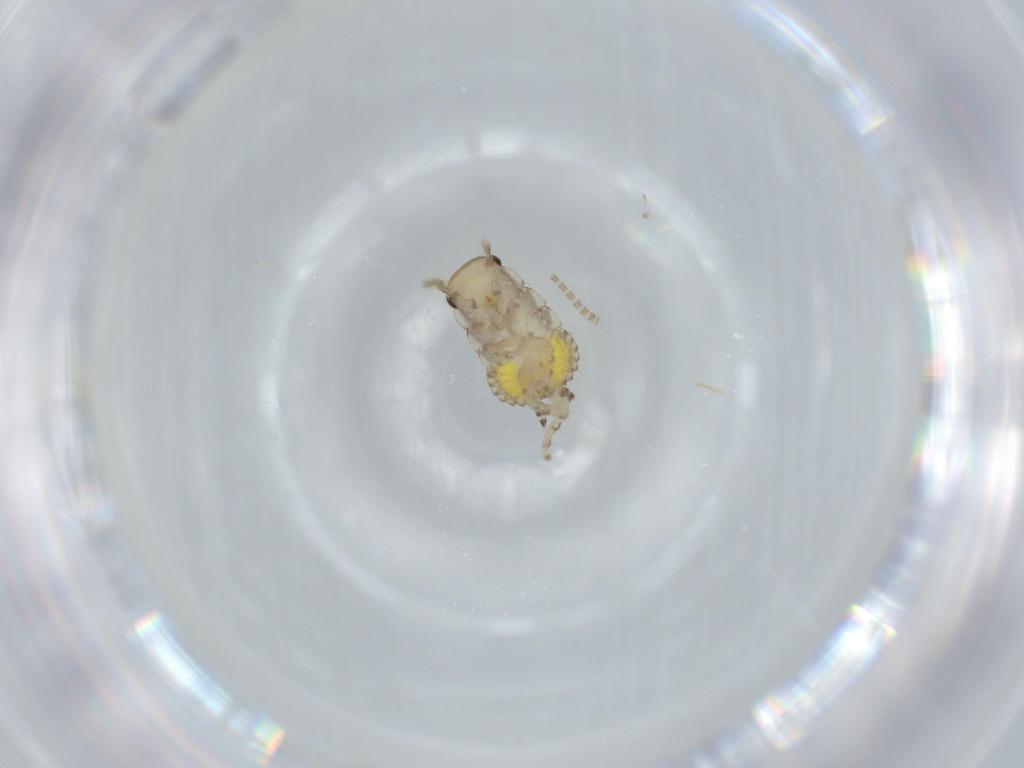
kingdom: Animalia
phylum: Arthropoda
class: Insecta
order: Blattodea
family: Ectobiidae
